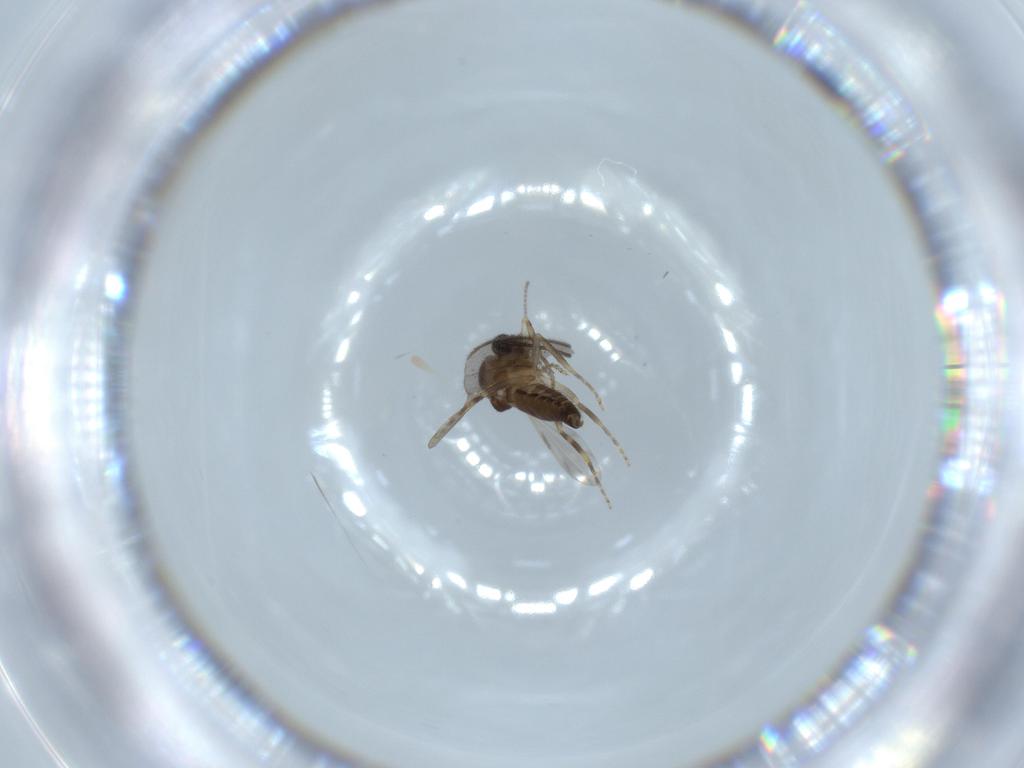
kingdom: Animalia
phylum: Arthropoda
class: Insecta
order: Diptera
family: Ceratopogonidae
